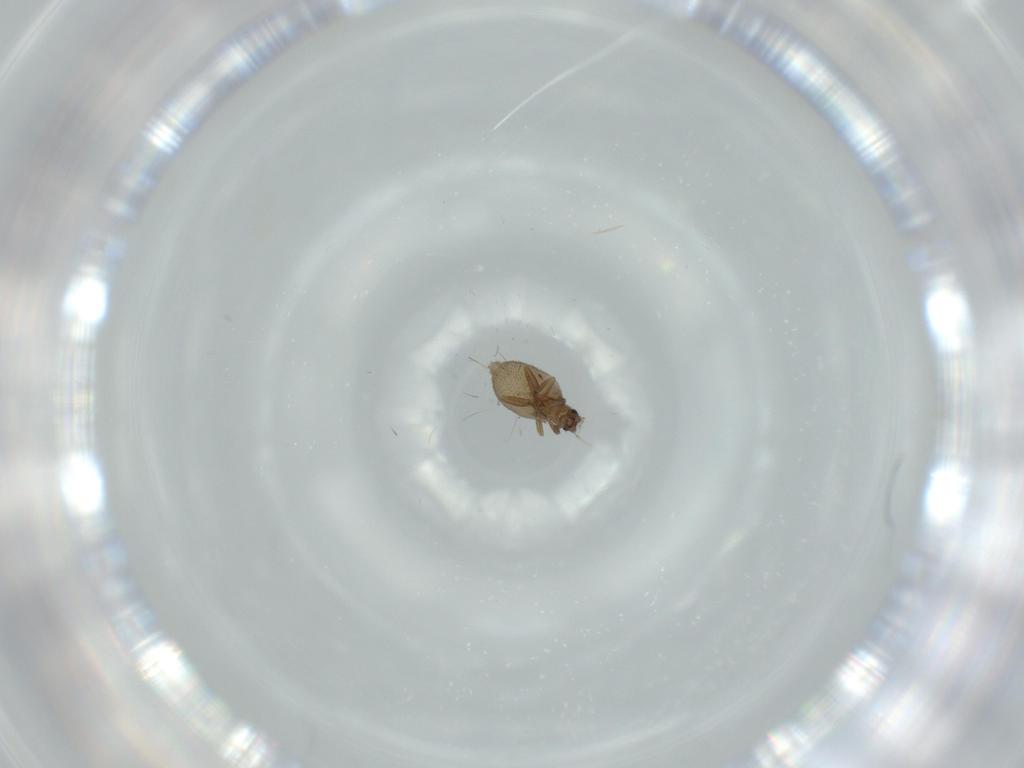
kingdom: Animalia
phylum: Arthropoda
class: Insecta
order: Diptera
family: Phoridae
